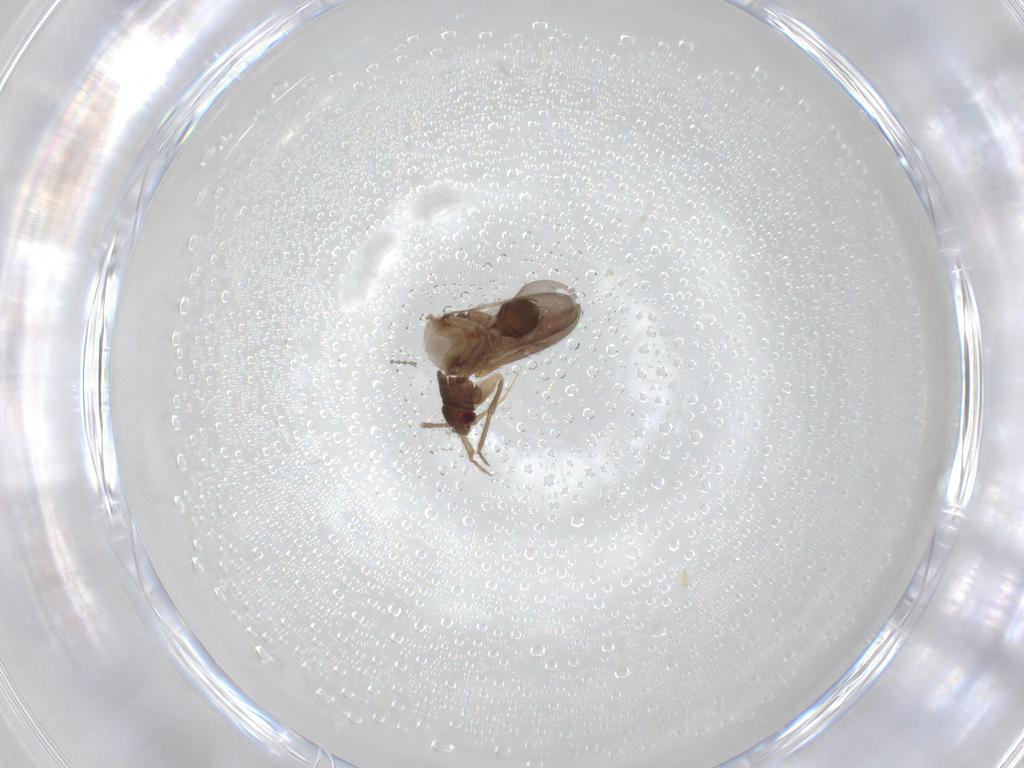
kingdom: Animalia
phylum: Arthropoda
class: Insecta
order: Hemiptera
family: Ceratocombidae
